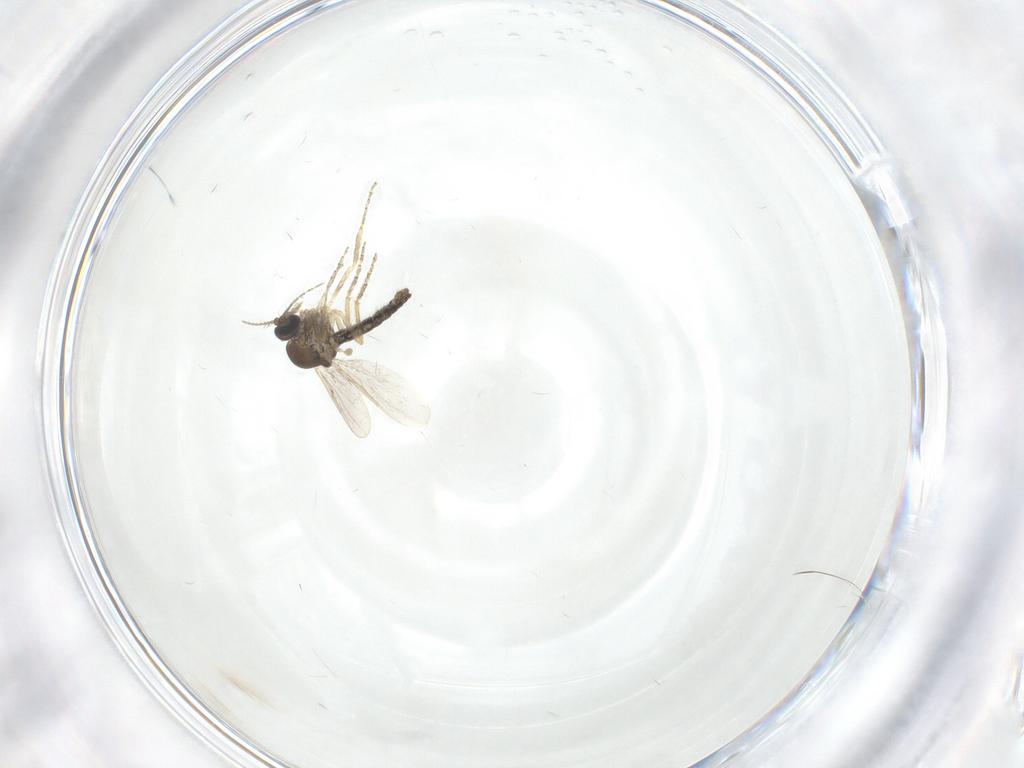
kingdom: Animalia
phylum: Arthropoda
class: Insecta
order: Diptera
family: Ceratopogonidae
